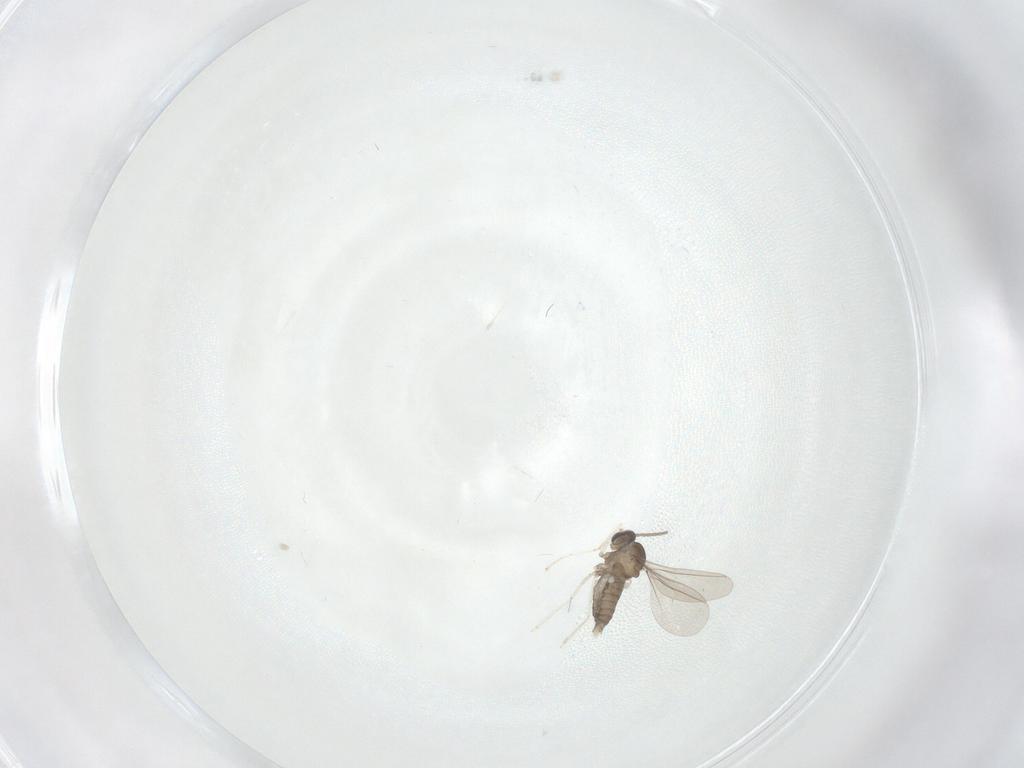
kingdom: Animalia
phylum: Arthropoda
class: Insecta
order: Diptera
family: Cecidomyiidae
